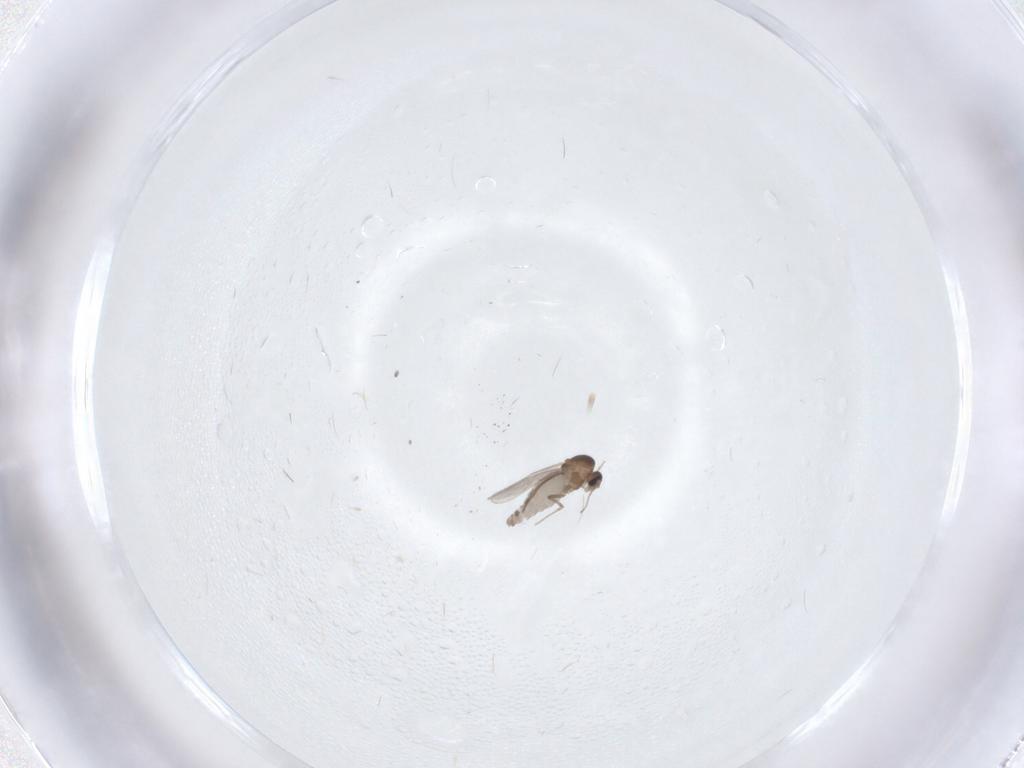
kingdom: Animalia
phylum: Arthropoda
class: Insecta
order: Diptera
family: Ceratopogonidae
